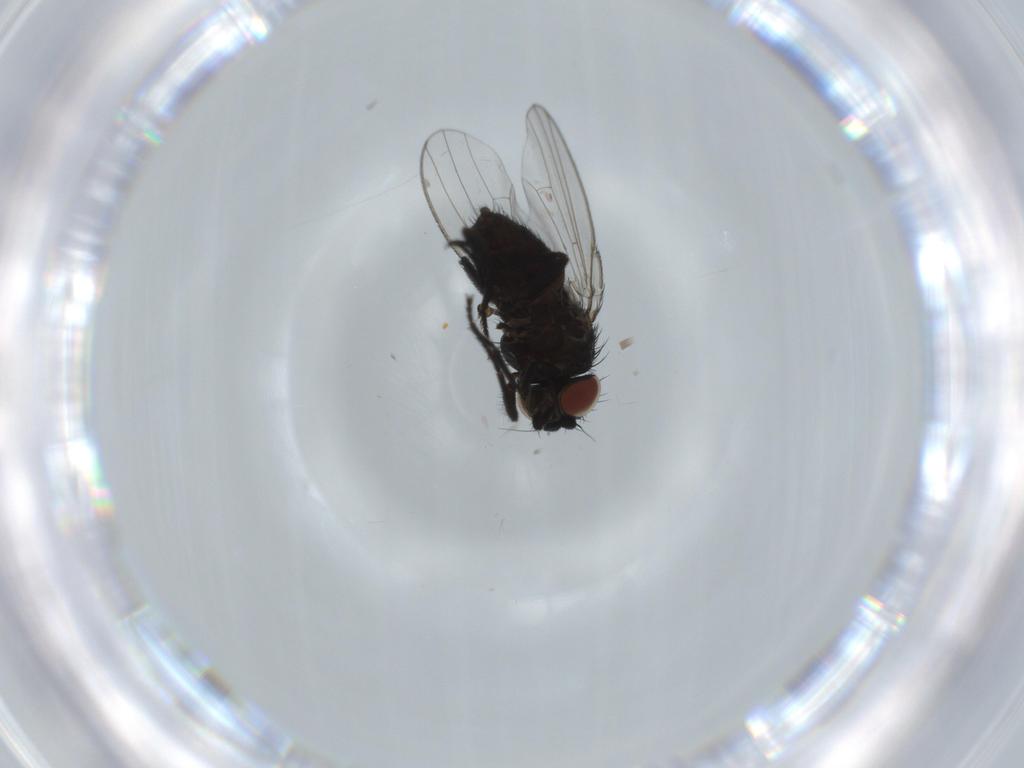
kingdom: Animalia
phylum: Arthropoda
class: Insecta
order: Diptera
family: Milichiidae
